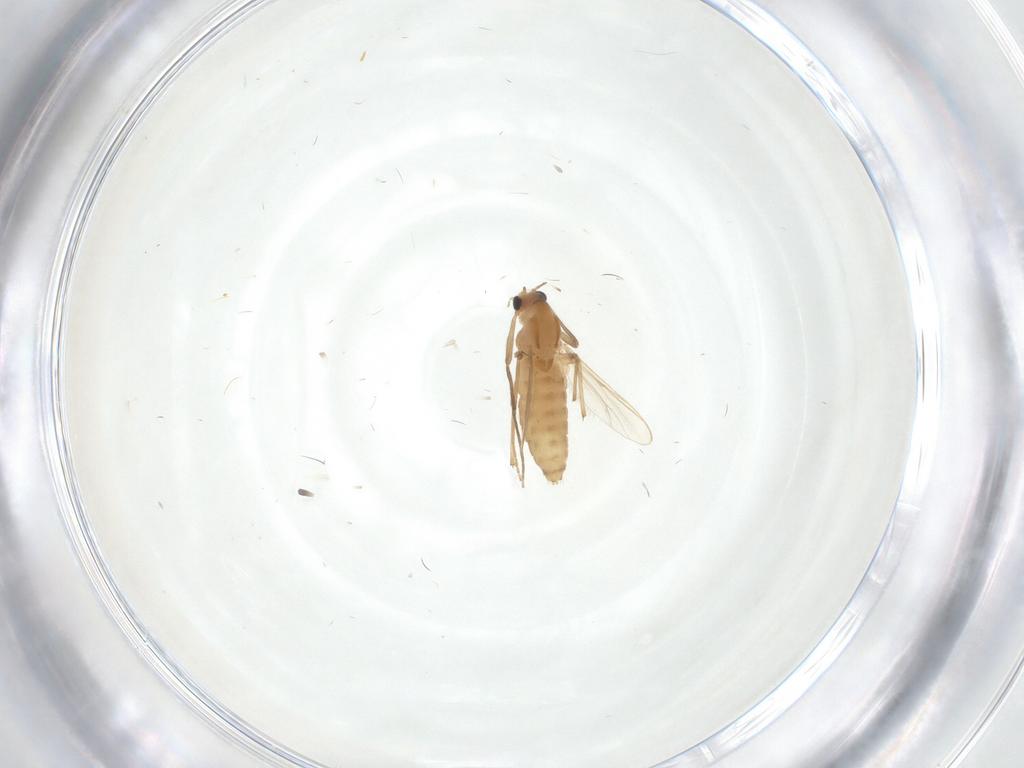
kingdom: Animalia
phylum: Arthropoda
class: Insecta
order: Diptera
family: Chironomidae
